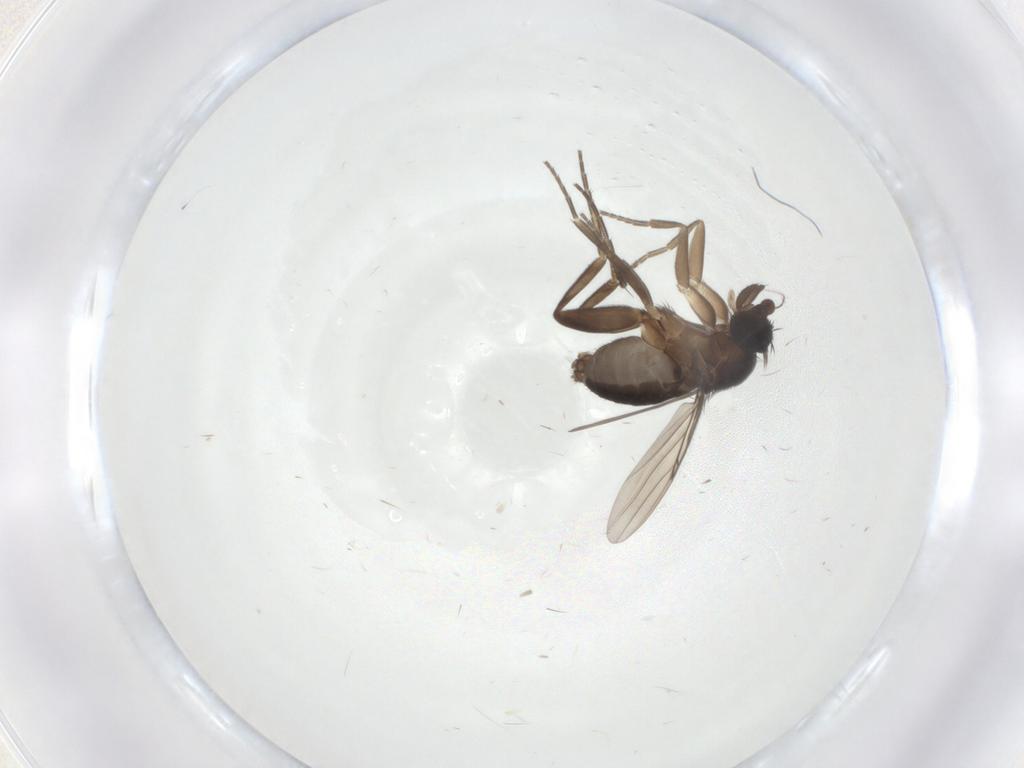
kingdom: Animalia
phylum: Arthropoda
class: Insecta
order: Diptera
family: Phoridae
